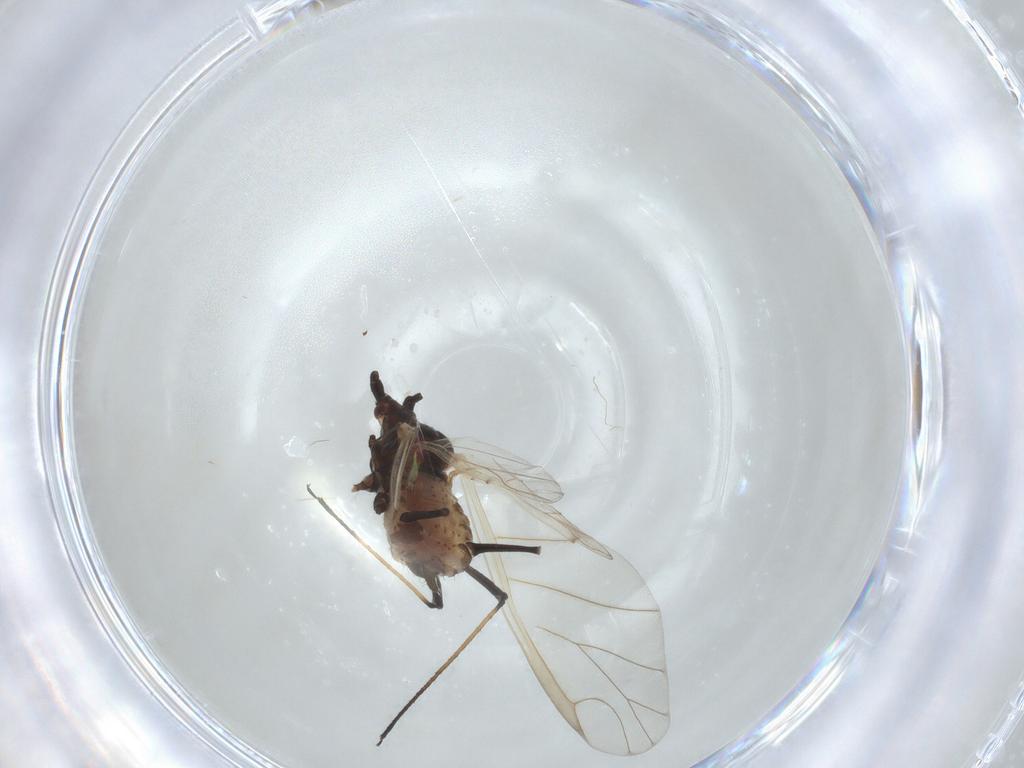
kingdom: Animalia
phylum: Arthropoda
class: Insecta
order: Hemiptera
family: Aphididae
